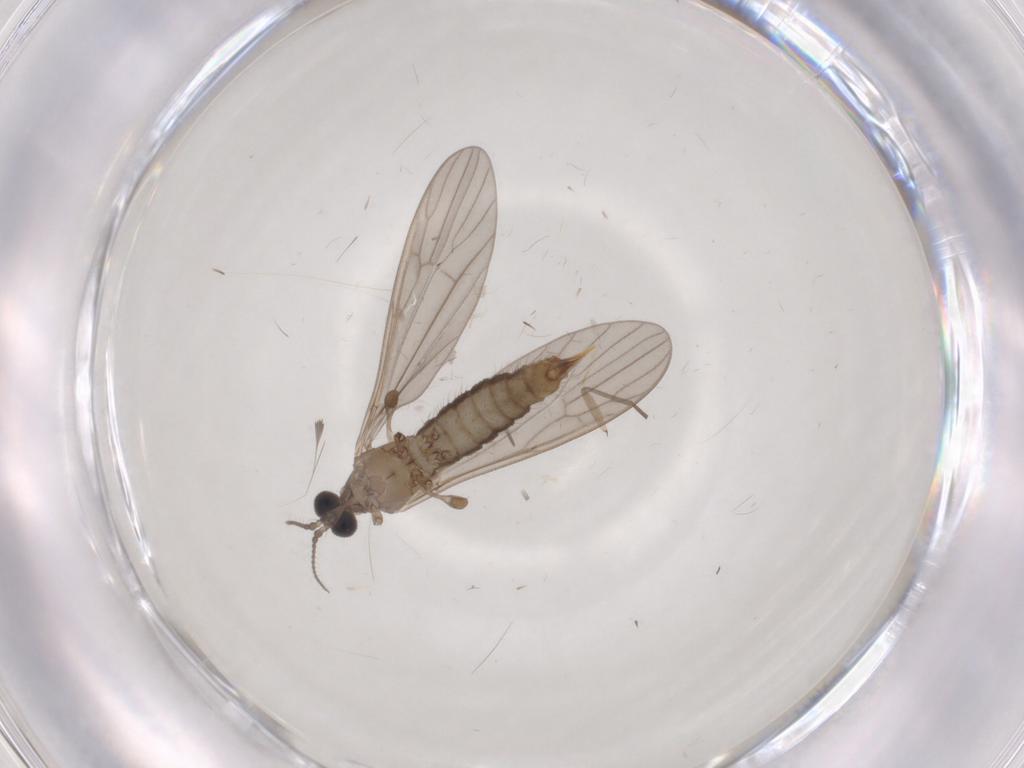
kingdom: Animalia
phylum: Arthropoda
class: Insecta
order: Diptera
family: Limoniidae
